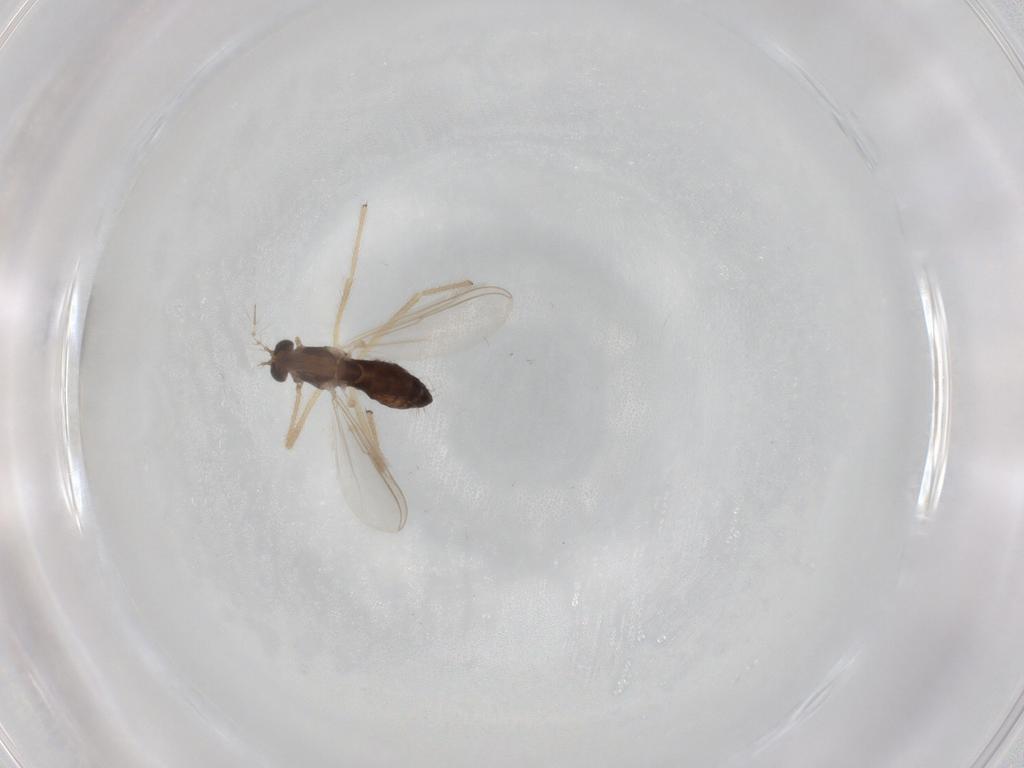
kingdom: Animalia
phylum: Arthropoda
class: Insecta
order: Diptera
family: Chironomidae
